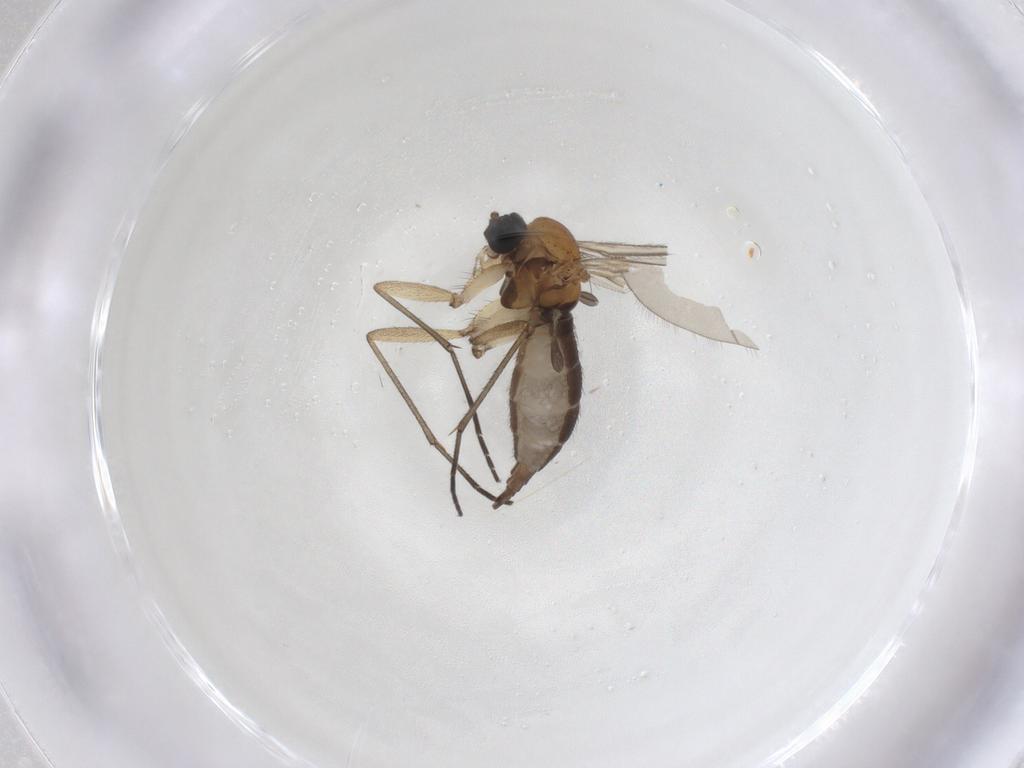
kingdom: Animalia
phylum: Arthropoda
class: Insecta
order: Diptera
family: Sciaridae
